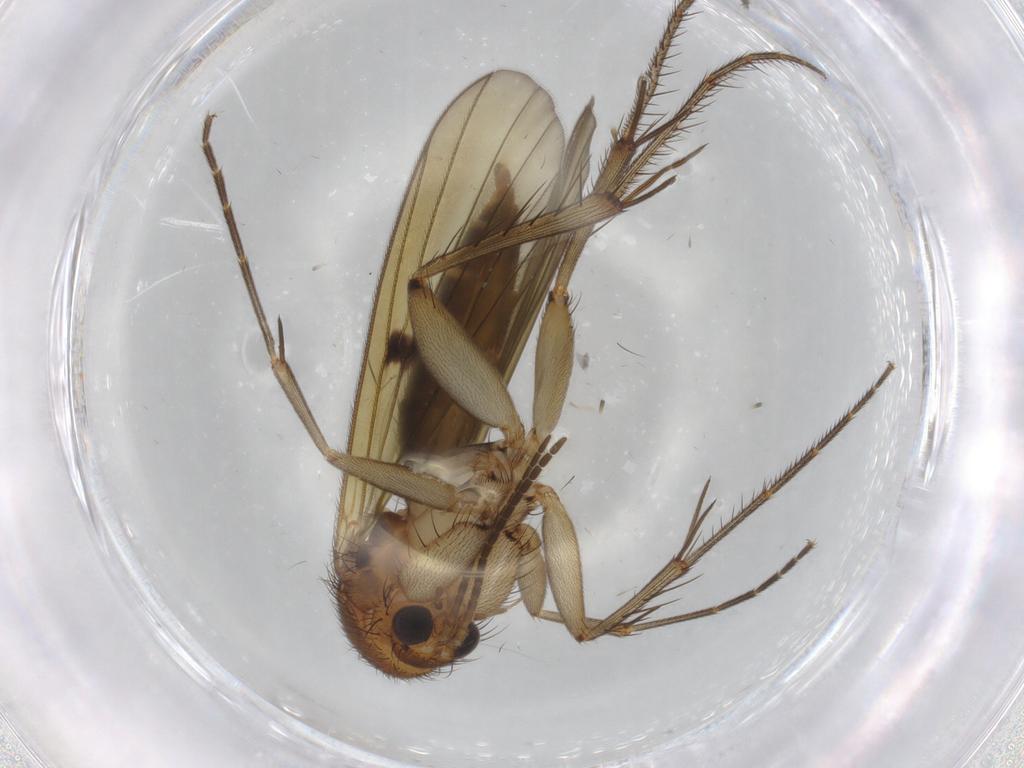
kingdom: Animalia
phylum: Arthropoda
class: Insecta
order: Diptera
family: Mycetophilidae
